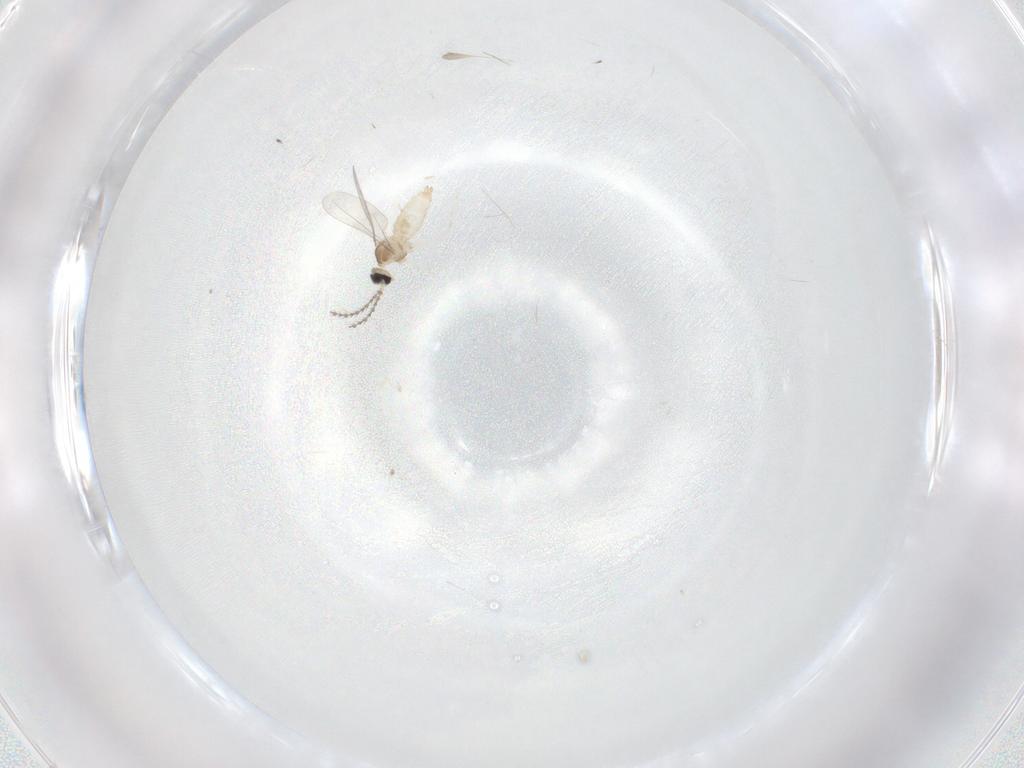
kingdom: Animalia
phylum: Arthropoda
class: Insecta
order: Diptera
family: Cecidomyiidae
